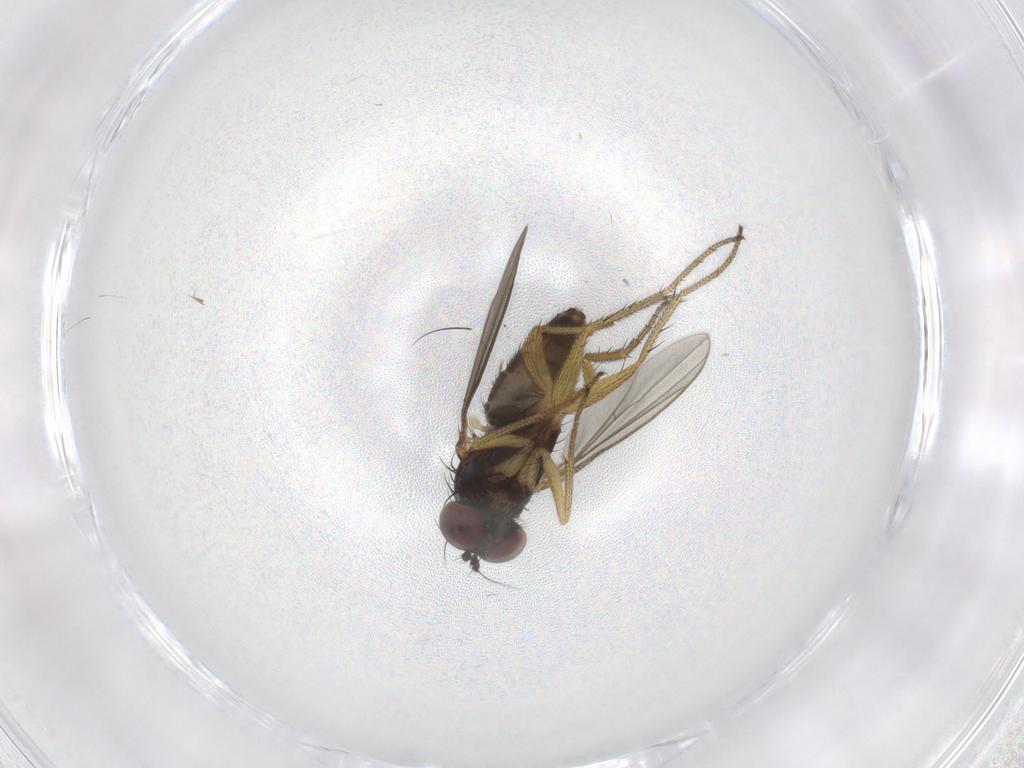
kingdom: Animalia
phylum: Arthropoda
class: Insecta
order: Diptera
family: Dolichopodidae
